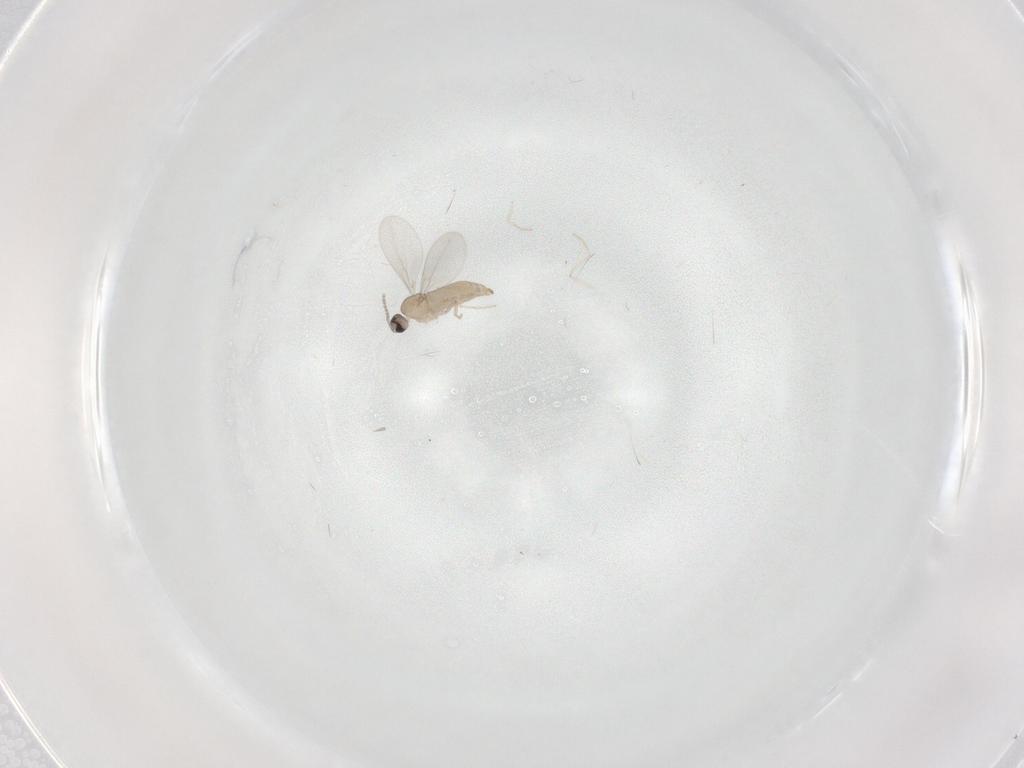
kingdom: Animalia
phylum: Arthropoda
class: Insecta
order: Diptera
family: Cecidomyiidae
